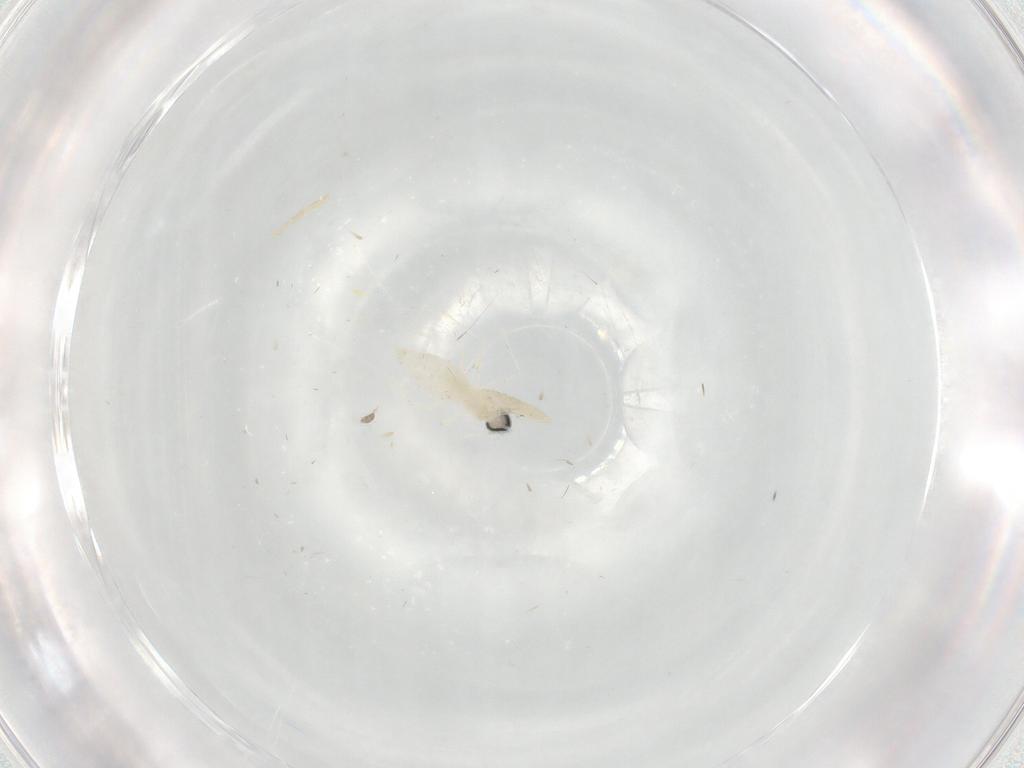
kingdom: Animalia
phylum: Arthropoda
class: Insecta
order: Diptera
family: Cecidomyiidae
